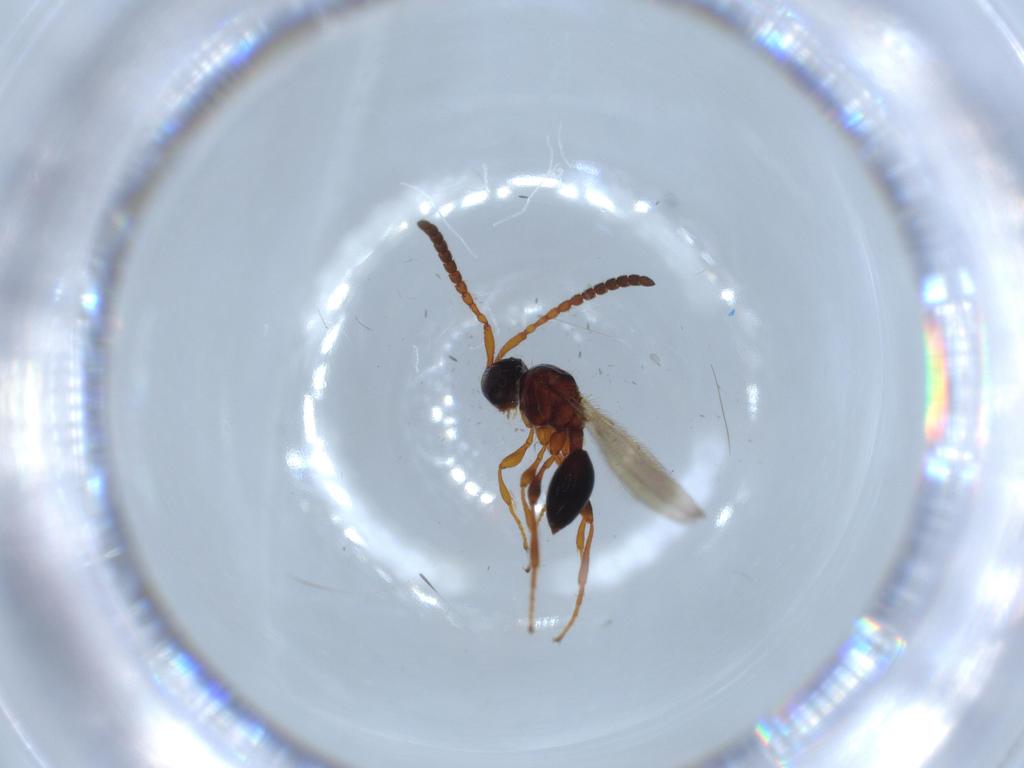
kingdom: Animalia
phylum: Arthropoda
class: Insecta
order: Hymenoptera
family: Diapriidae
